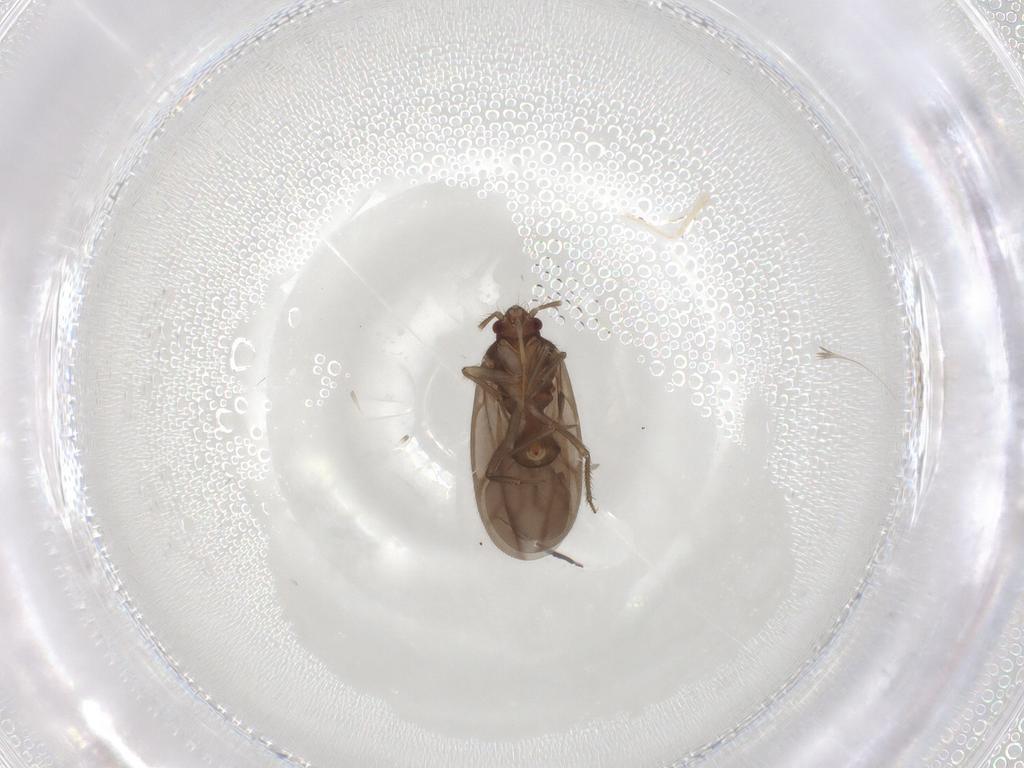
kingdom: Animalia
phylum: Arthropoda
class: Insecta
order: Hemiptera
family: Ceratocombidae
